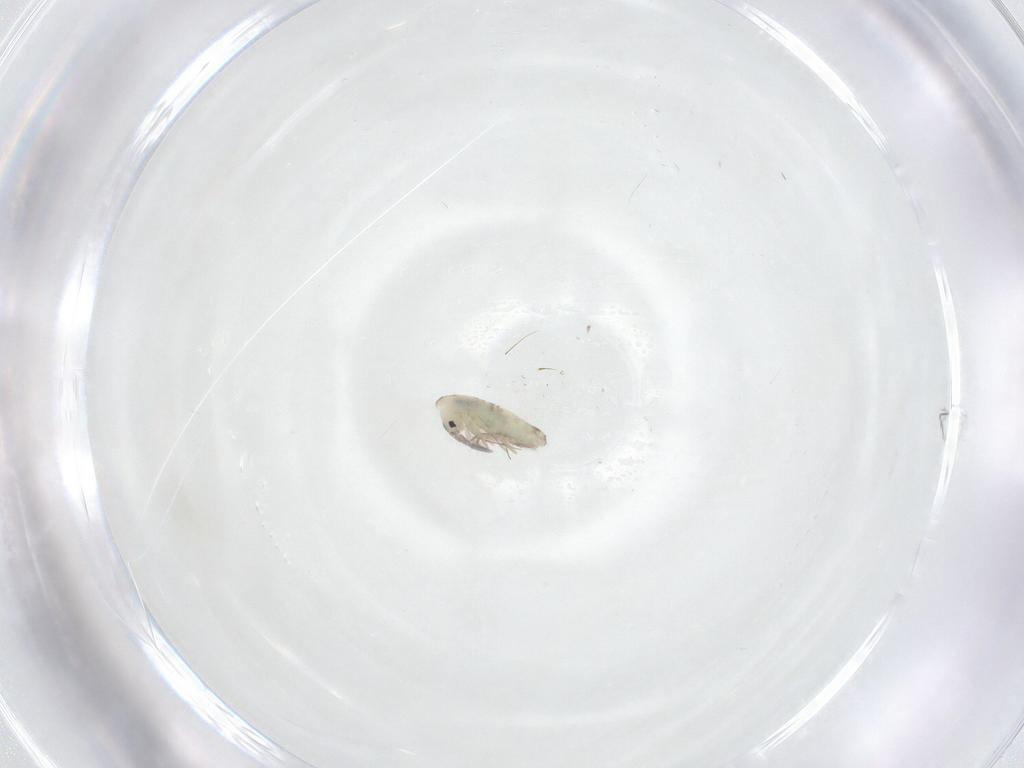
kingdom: Animalia
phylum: Arthropoda
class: Collembola
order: Entomobryomorpha
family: Entomobryidae
